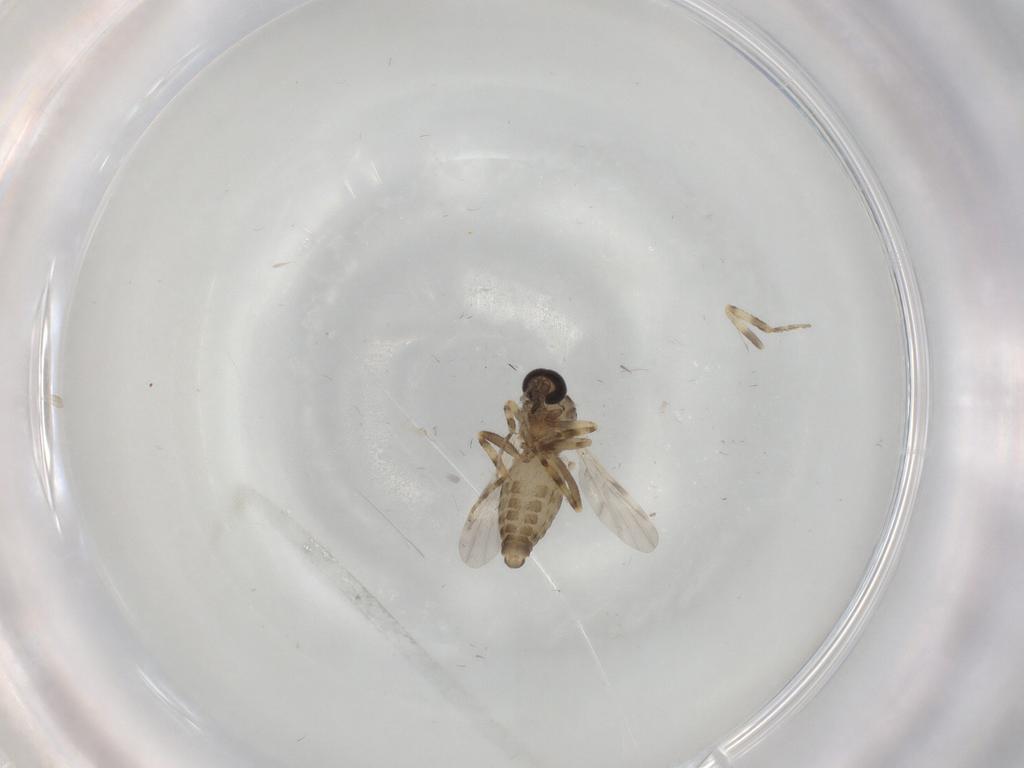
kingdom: Animalia
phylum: Arthropoda
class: Insecta
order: Diptera
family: Ceratopogonidae
